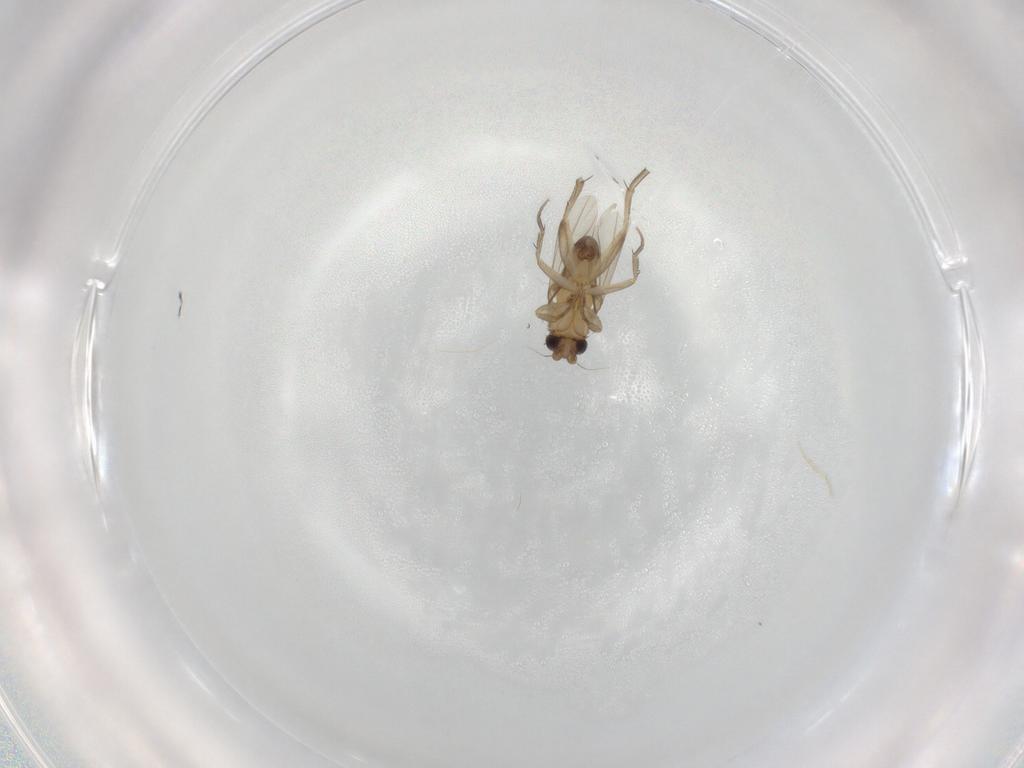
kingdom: Animalia
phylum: Arthropoda
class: Insecta
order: Diptera
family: Phoridae
